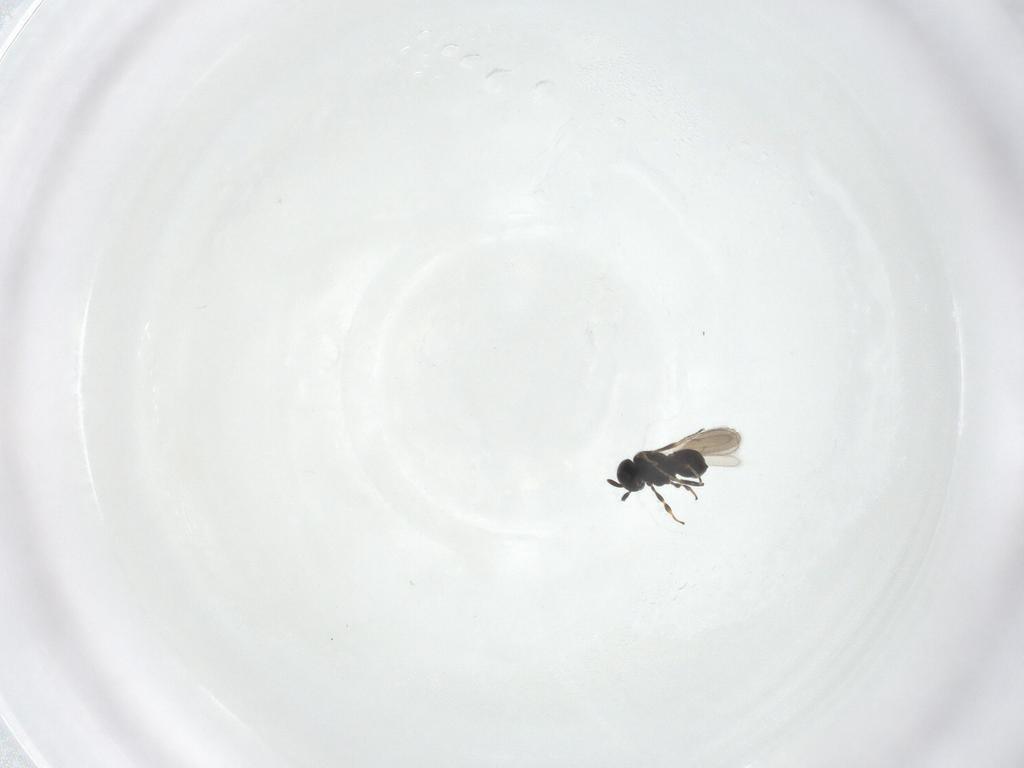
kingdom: Animalia
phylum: Arthropoda
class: Insecta
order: Hymenoptera
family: Scelionidae
